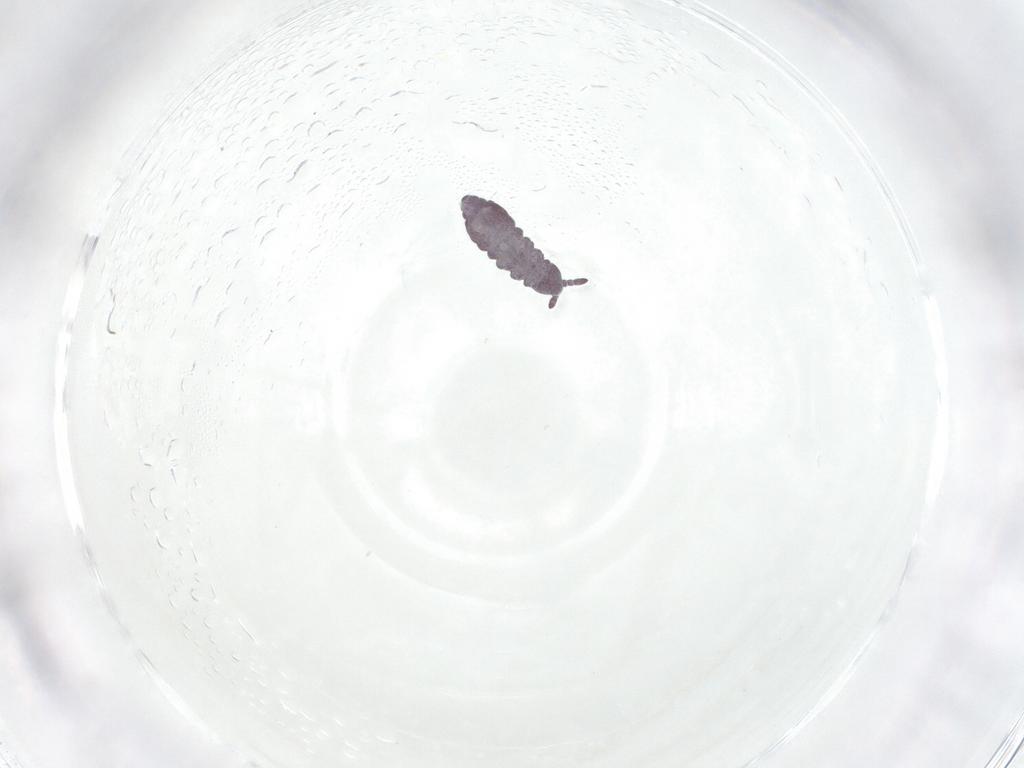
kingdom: Animalia
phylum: Arthropoda
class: Collembola
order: Poduromorpha
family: Hypogastruridae
